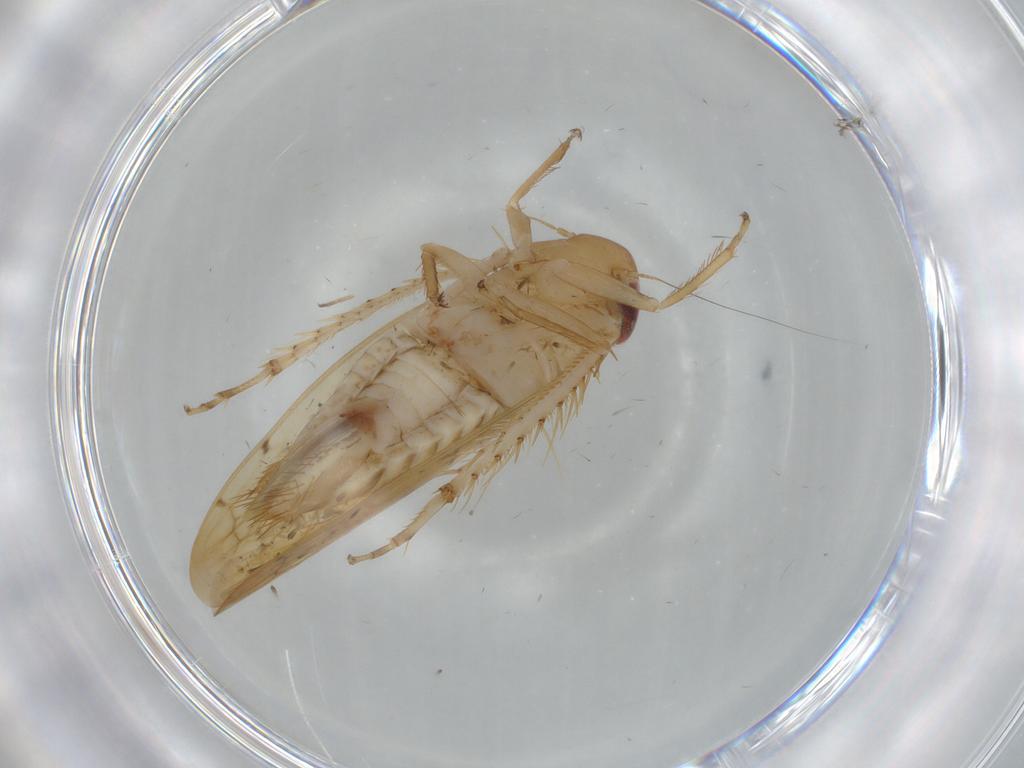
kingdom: Animalia
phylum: Arthropoda
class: Insecta
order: Hemiptera
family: Cicadellidae
